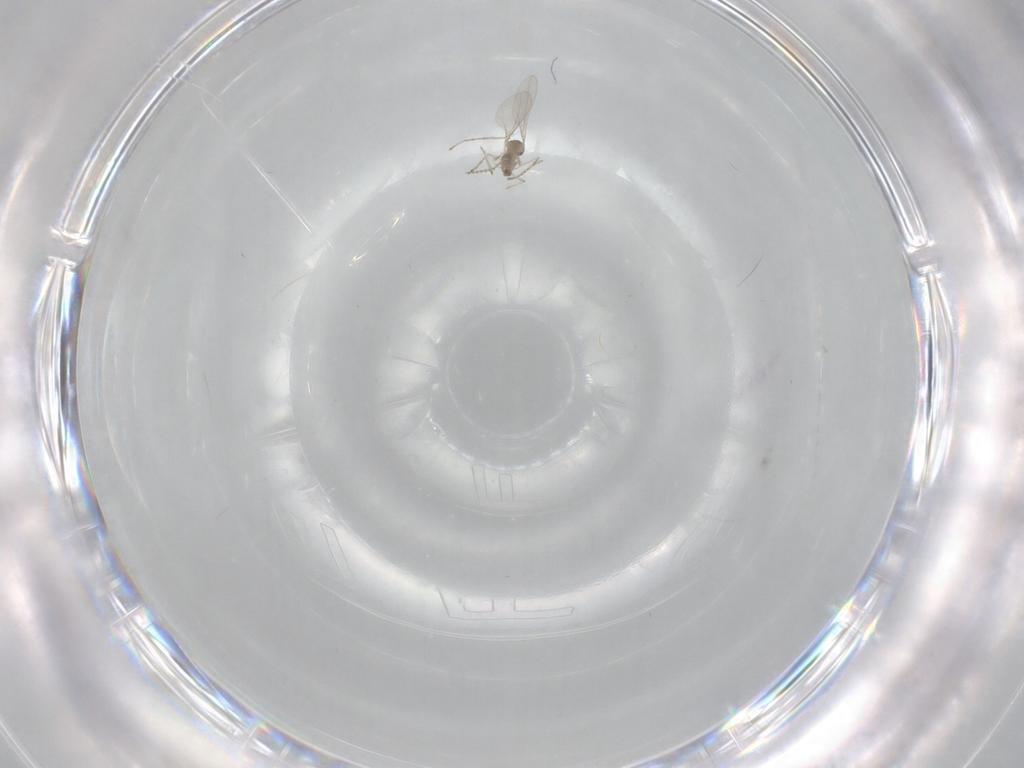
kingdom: Animalia
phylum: Arthropoda
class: Insecta
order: Diptera
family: Cecidomyiidae
